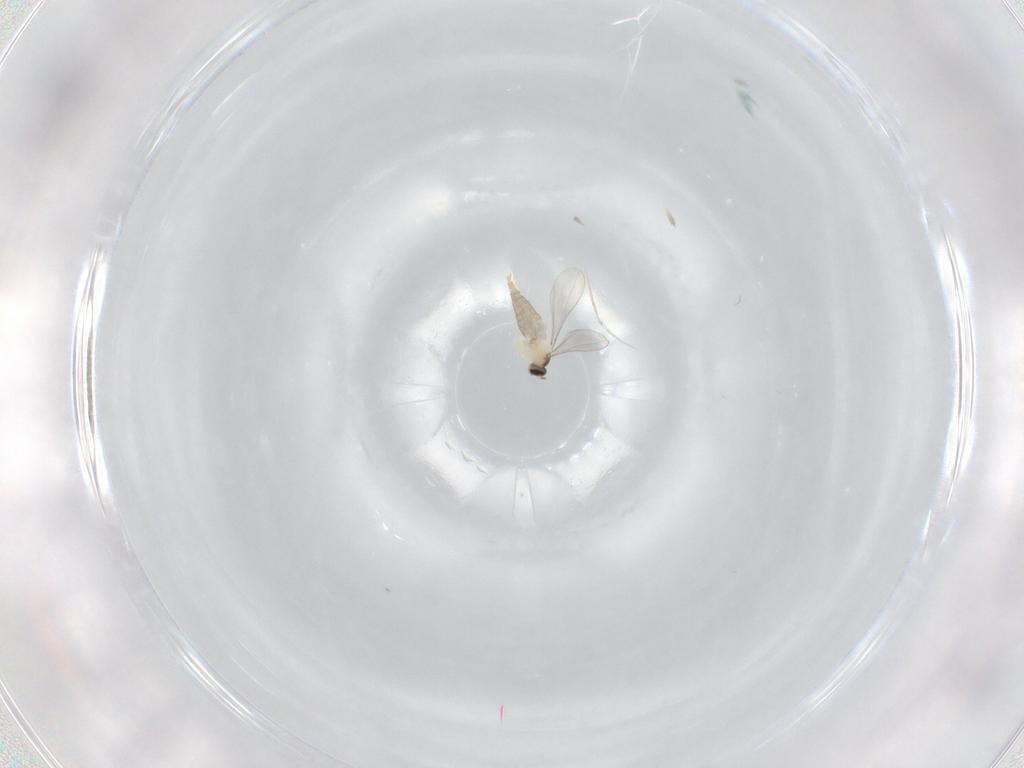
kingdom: Animalia
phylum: Arthropoda
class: Insecta
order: Diptera
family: Cecidomyiidae
